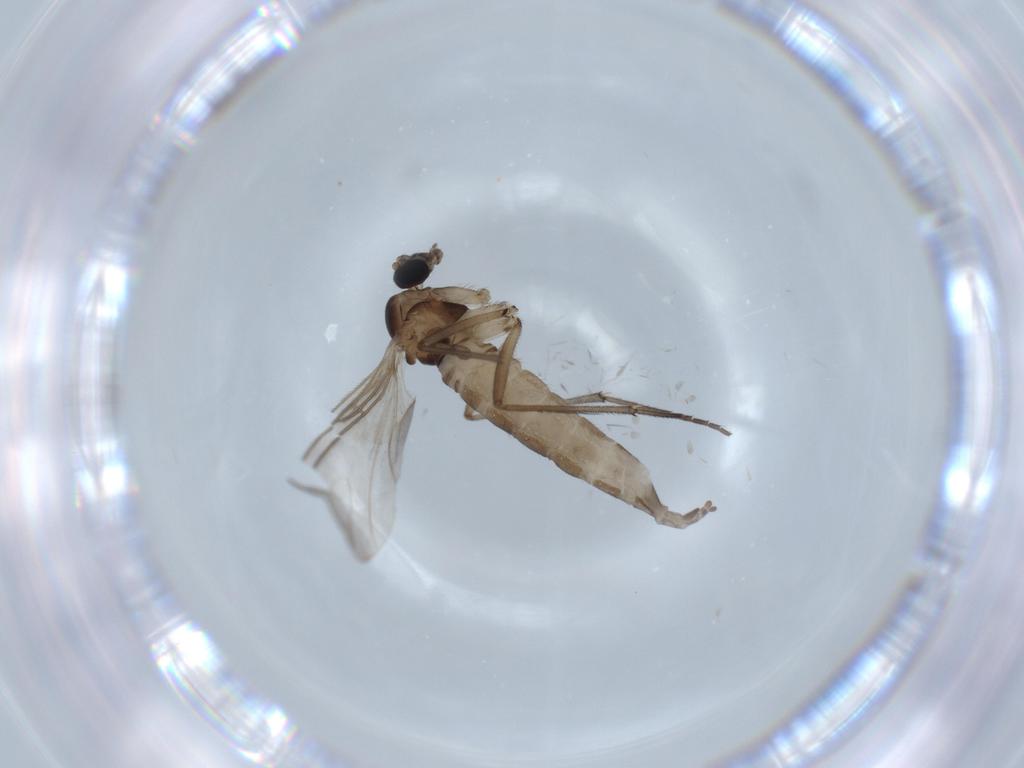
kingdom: Animalia
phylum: Arthropoda
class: Insecta
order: Diptera
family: Sciaridae
